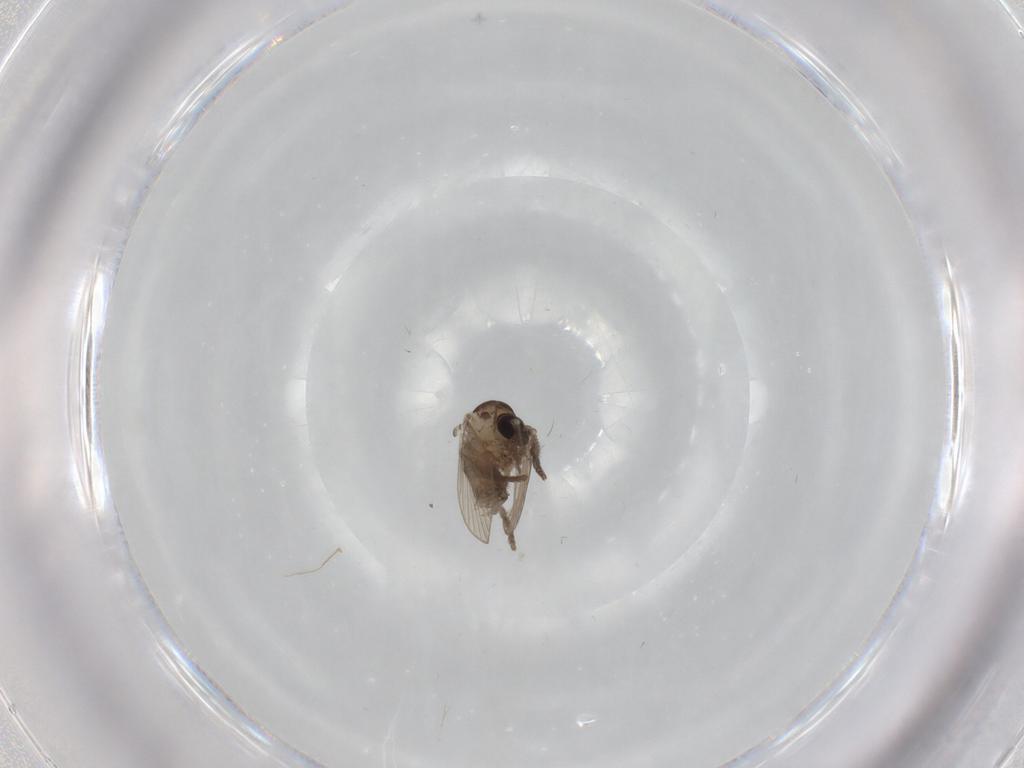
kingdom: Animalia
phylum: Arthropoda
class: Insecta
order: Diptera
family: Psychodidae
